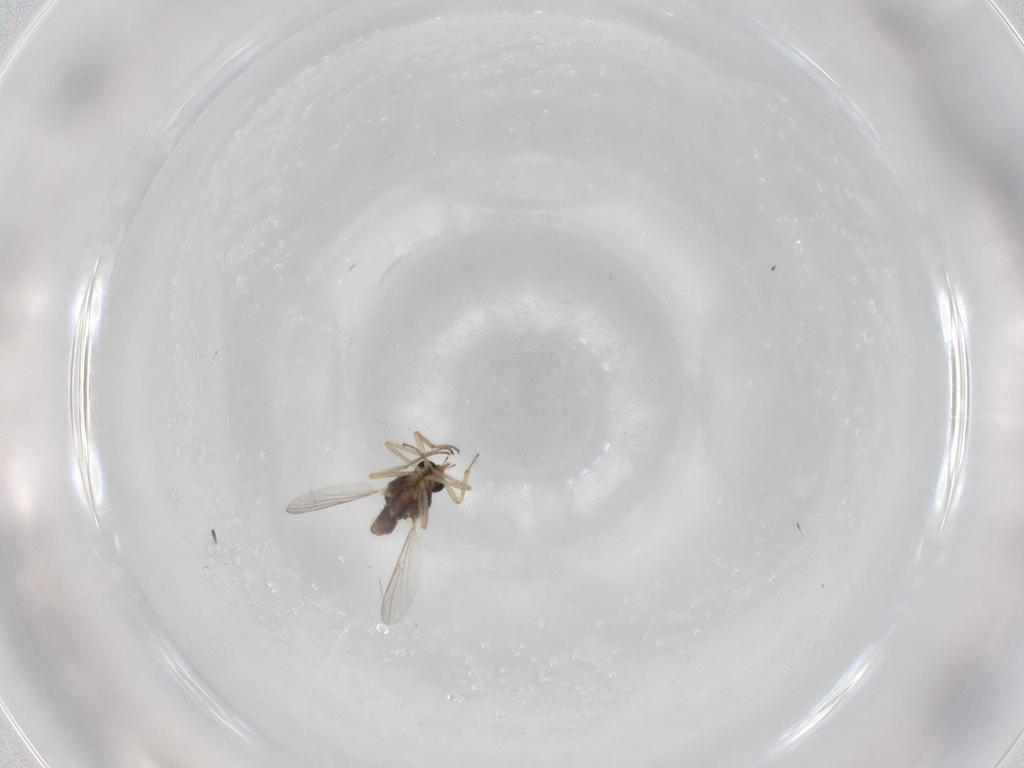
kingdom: Animalia
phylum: Arthropoda
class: Insecta
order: Diptera
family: Ceratopogonidae
